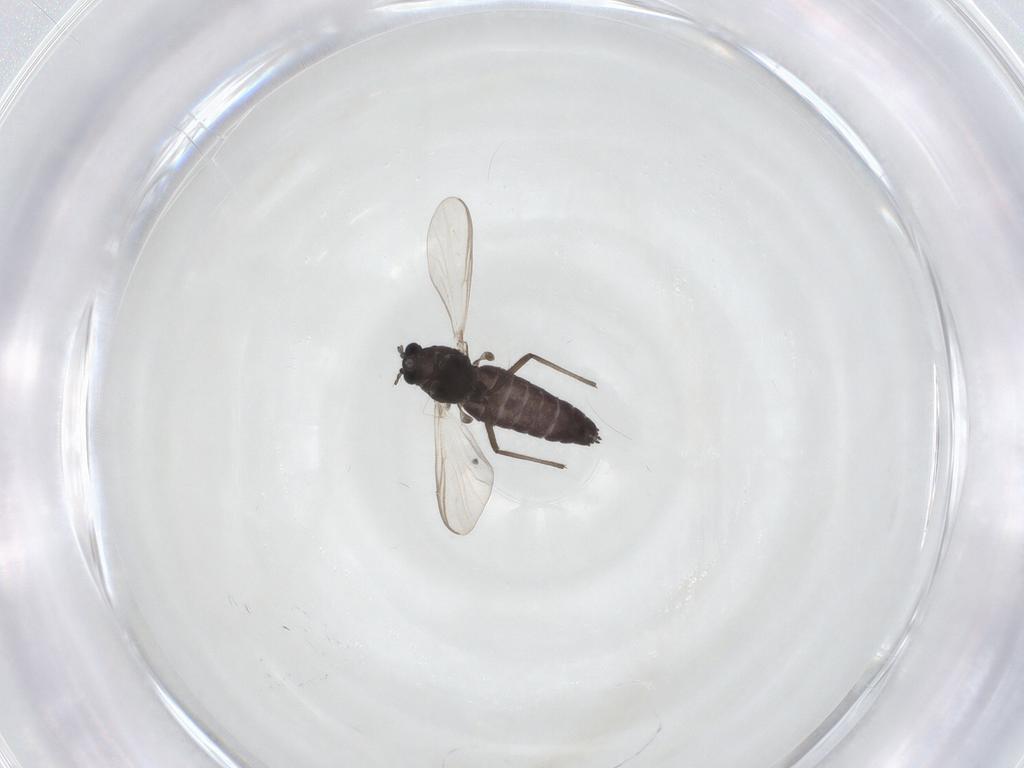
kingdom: Animalia
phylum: Arthropoda
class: Insecta
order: Diptera
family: Chironomidae
